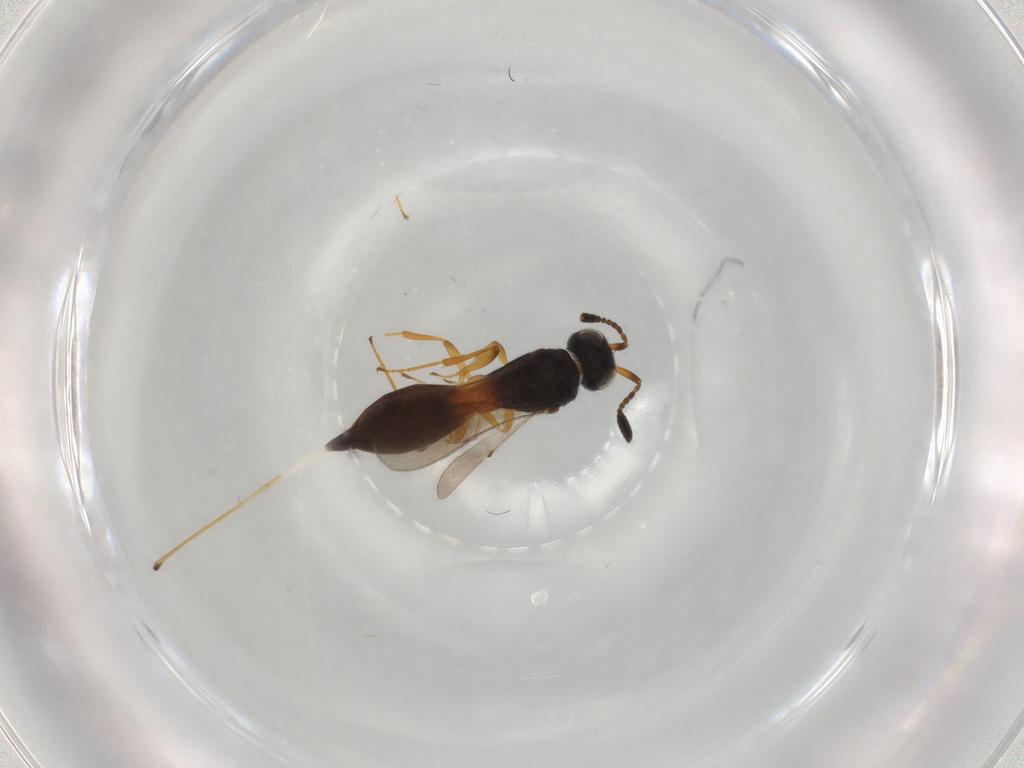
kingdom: Animalia
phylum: Arthropoda
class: Insecta
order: Hymenoptera
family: Scelionidae
